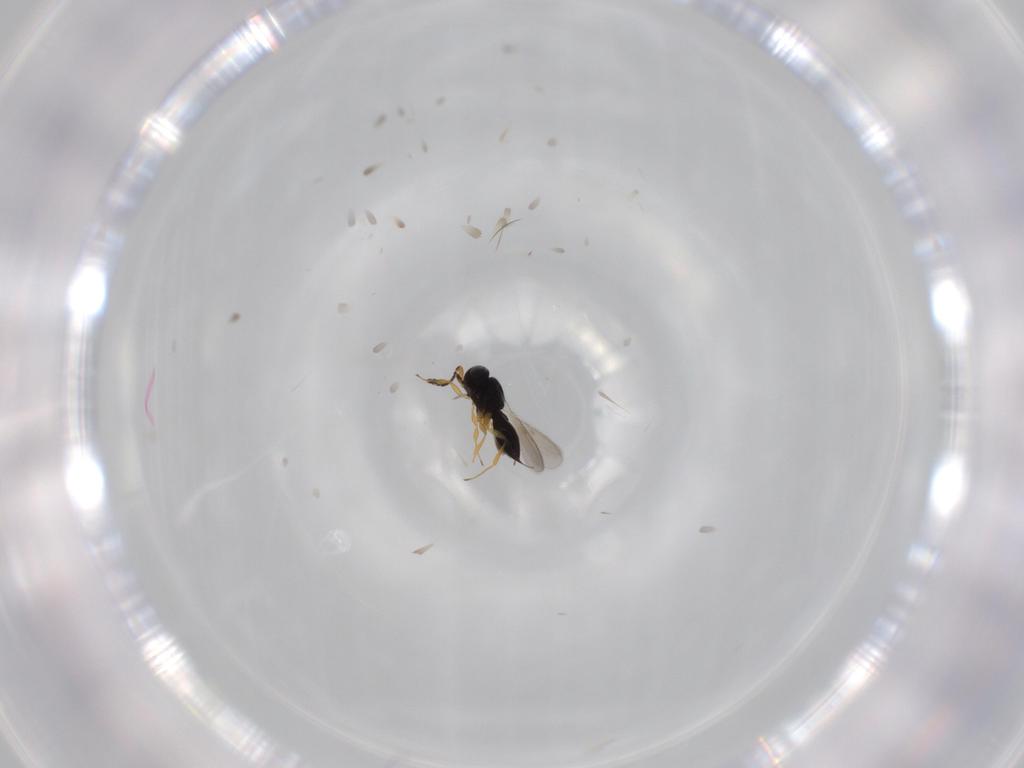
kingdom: Animalia
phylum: Arthropoda
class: Insecta
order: Hymenoptera
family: Scelionidae
